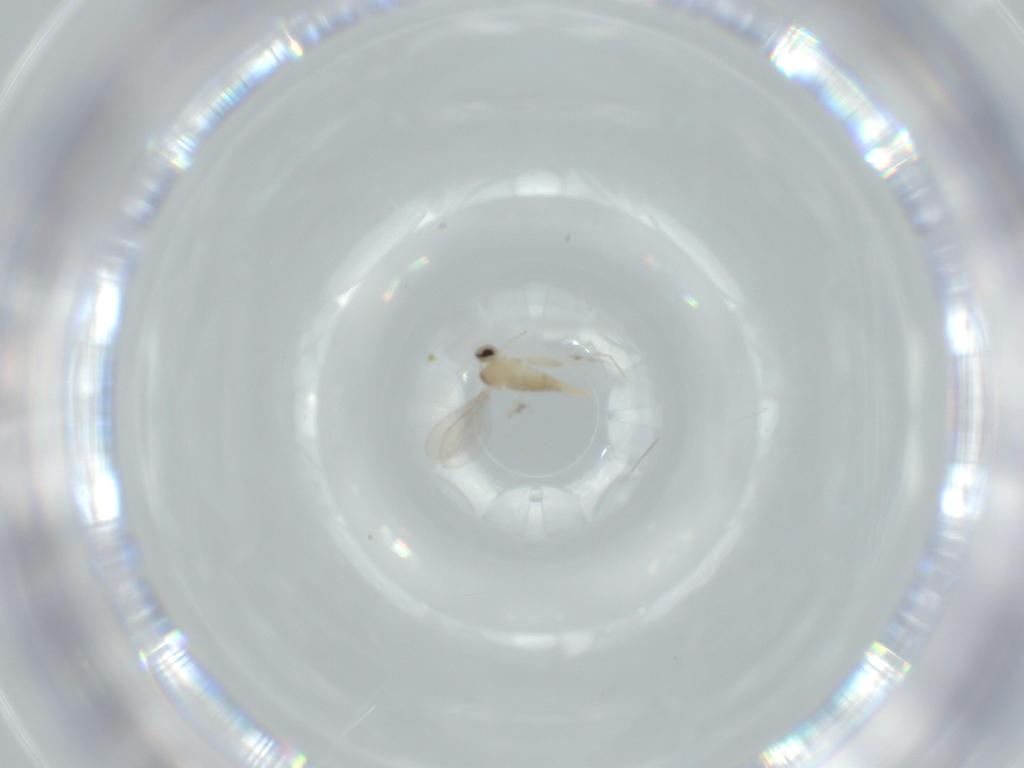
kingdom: Animalia
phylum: Arthropoda
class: Insecta
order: Diptera
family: Cecidomyiidae
